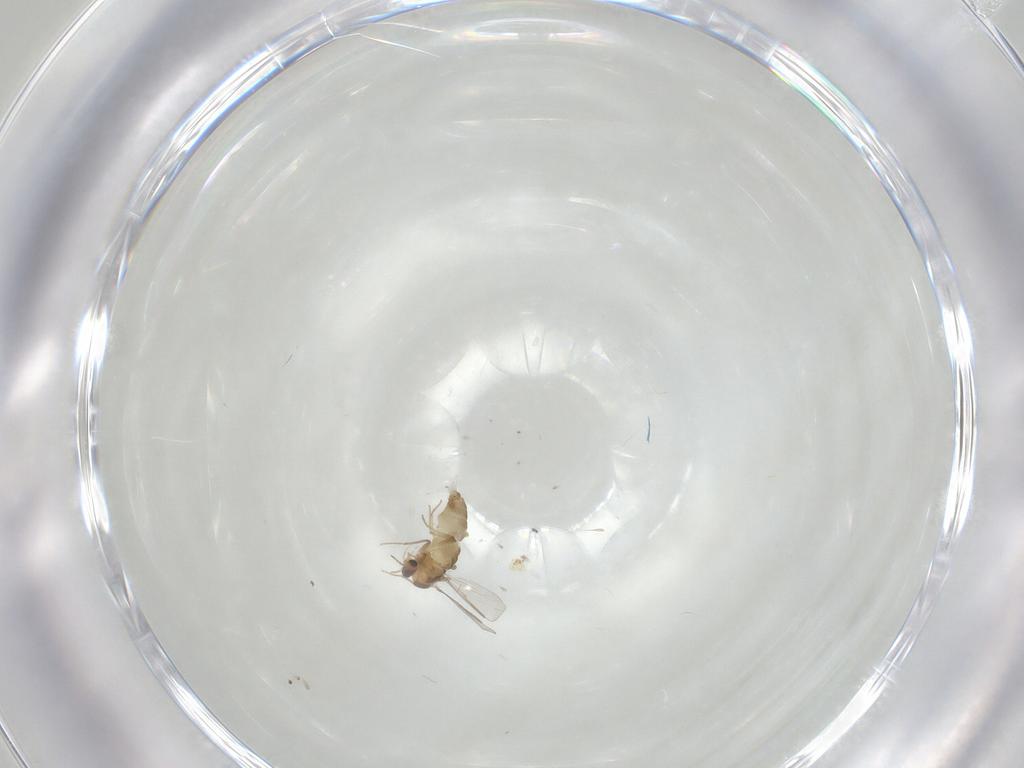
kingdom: Animalia
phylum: Arthropoda
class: Insecta
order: Diptera
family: Chironomidae
